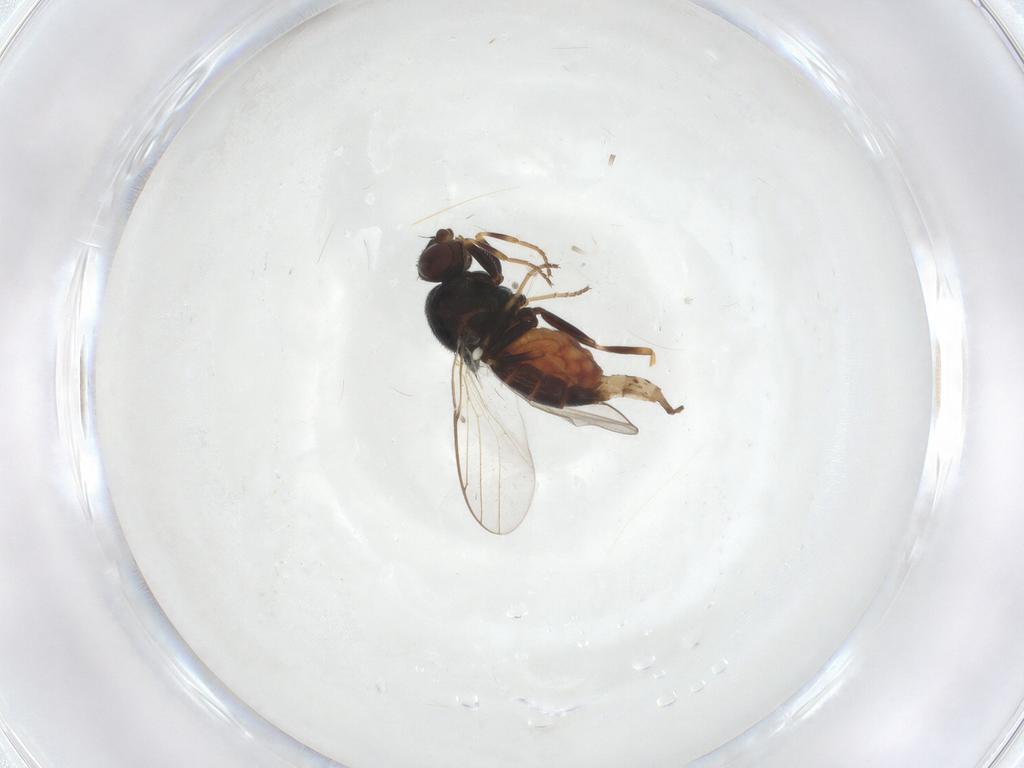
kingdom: Animalia
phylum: Arthropoda
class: Insecta
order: Diptera
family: Chloropidae
